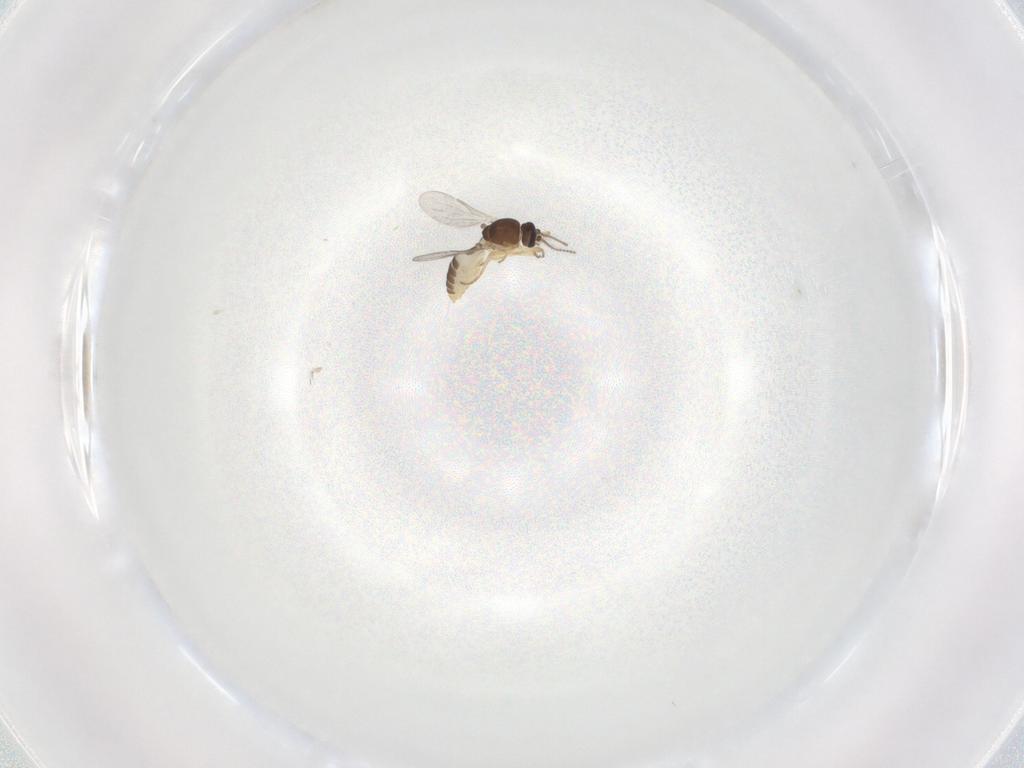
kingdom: Animalia
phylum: Arthropoda
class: Insecta
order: Diptera
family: Ceratopogonidae
